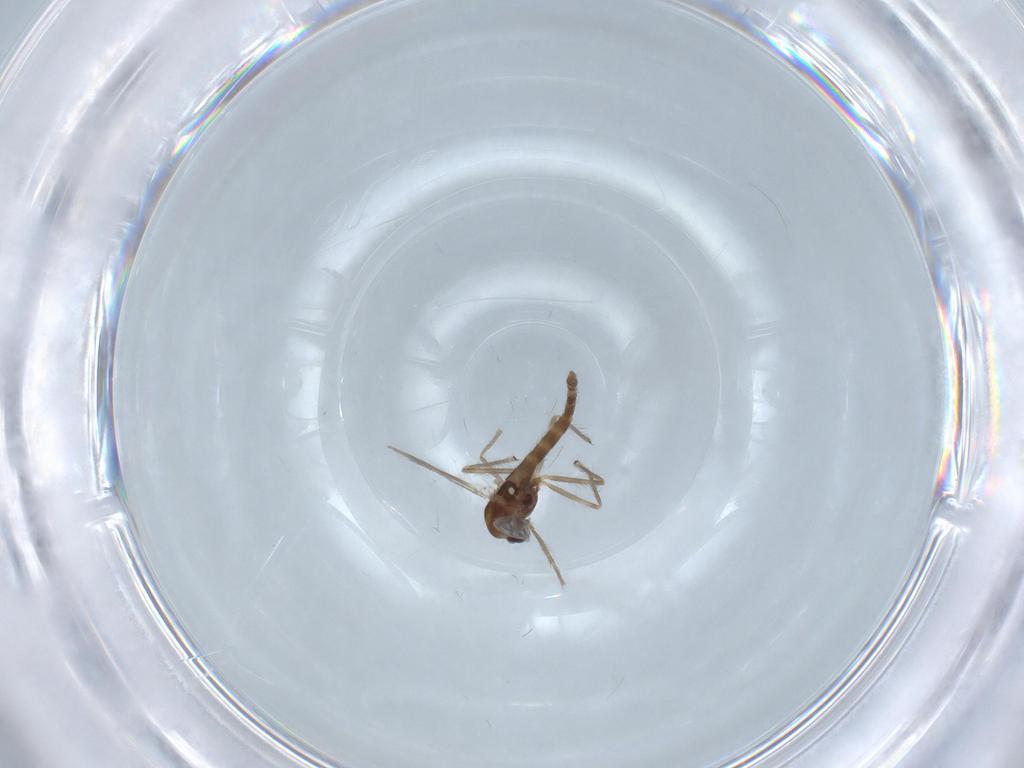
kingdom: Animalia
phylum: Arthropoda
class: Insecta
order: Diptera
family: Chironomidae
